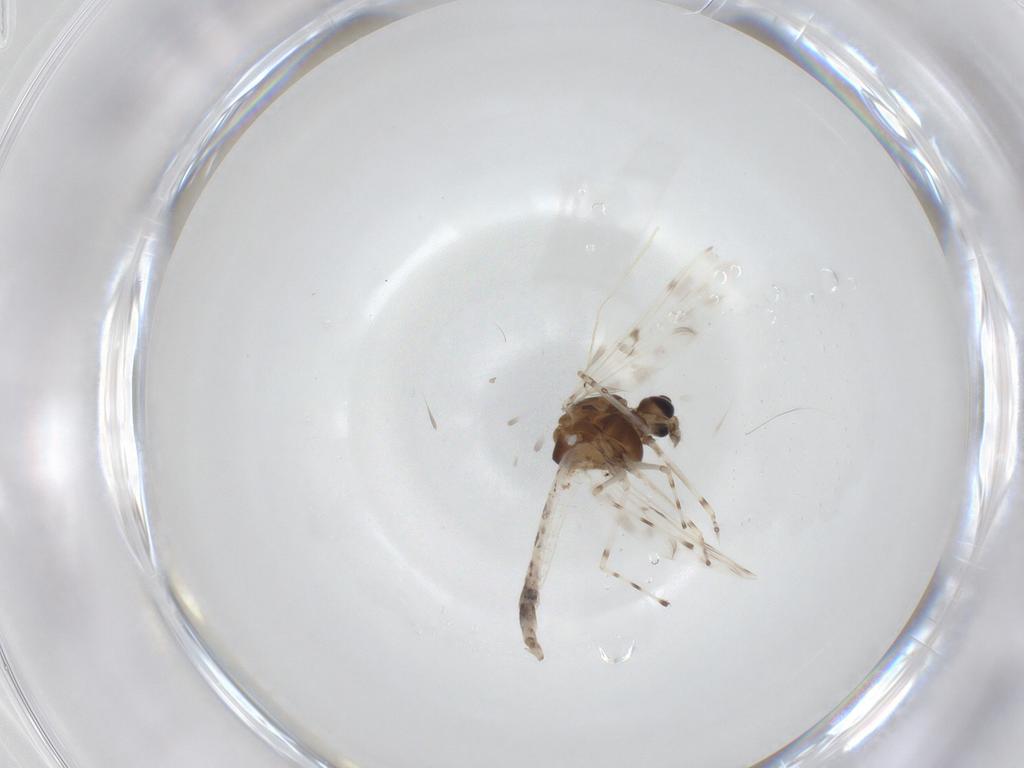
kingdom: Animalia
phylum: Arthropoda
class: Insecta
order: Diptera
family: Chironomidae
